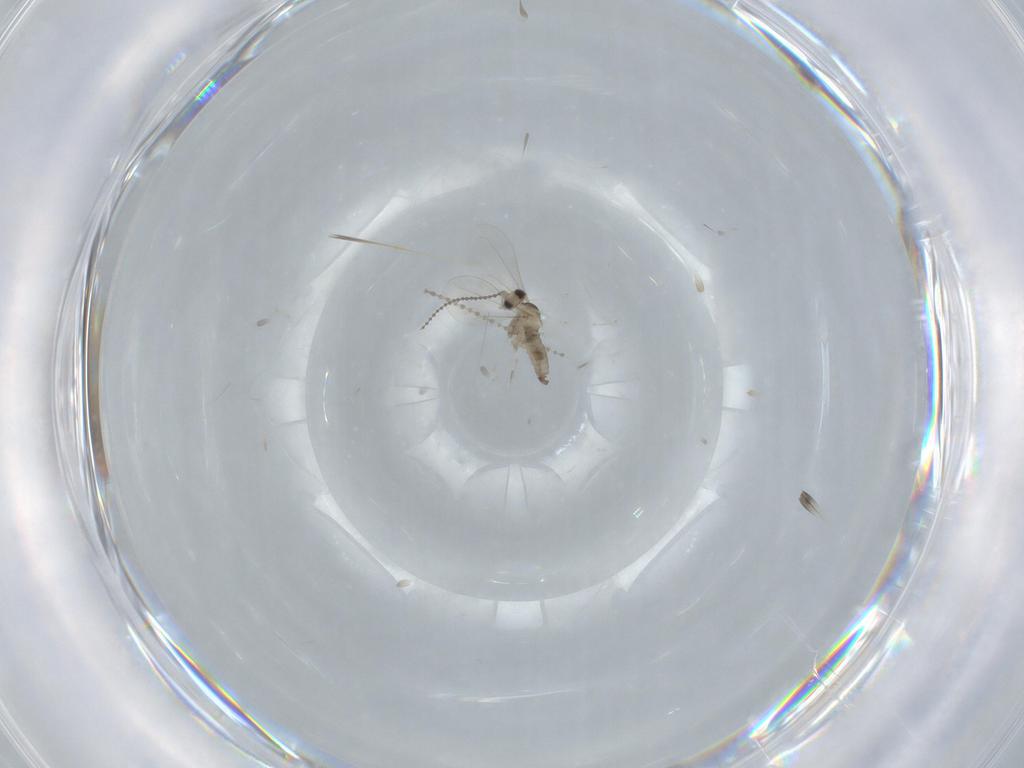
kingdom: Animalia
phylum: Arthropoda
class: Insecta
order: Diptera
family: Cecidomyiidae
